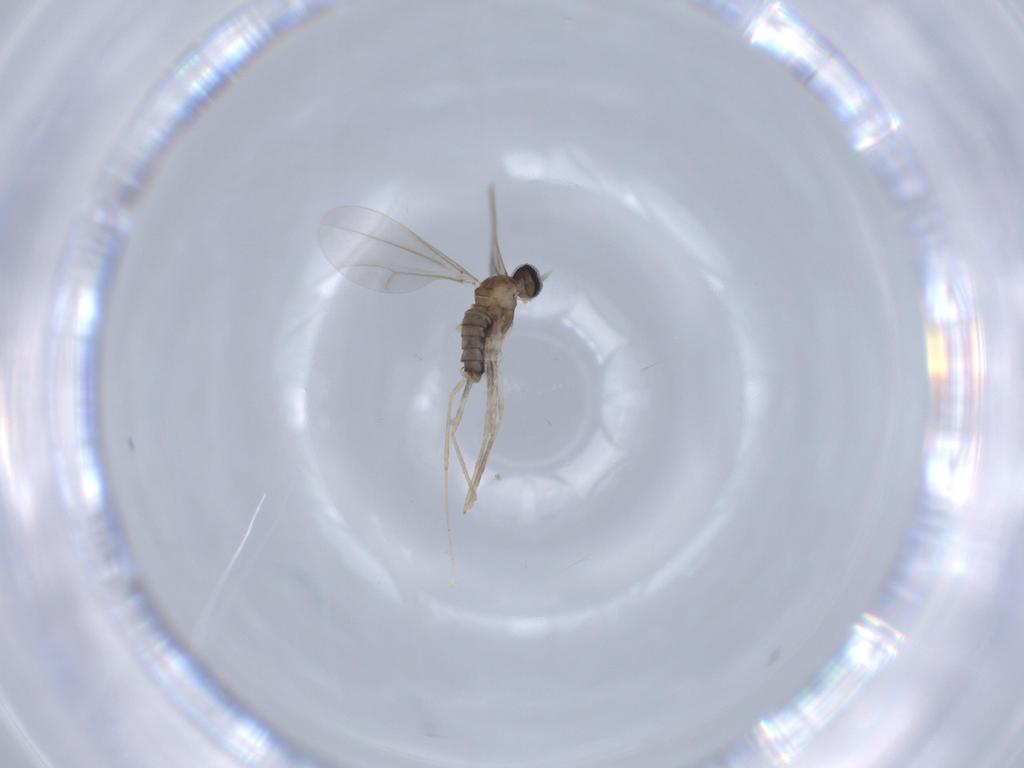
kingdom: Animalia
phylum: Arthropoda
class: Insecta
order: Diptera
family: Cecidomyiidae
